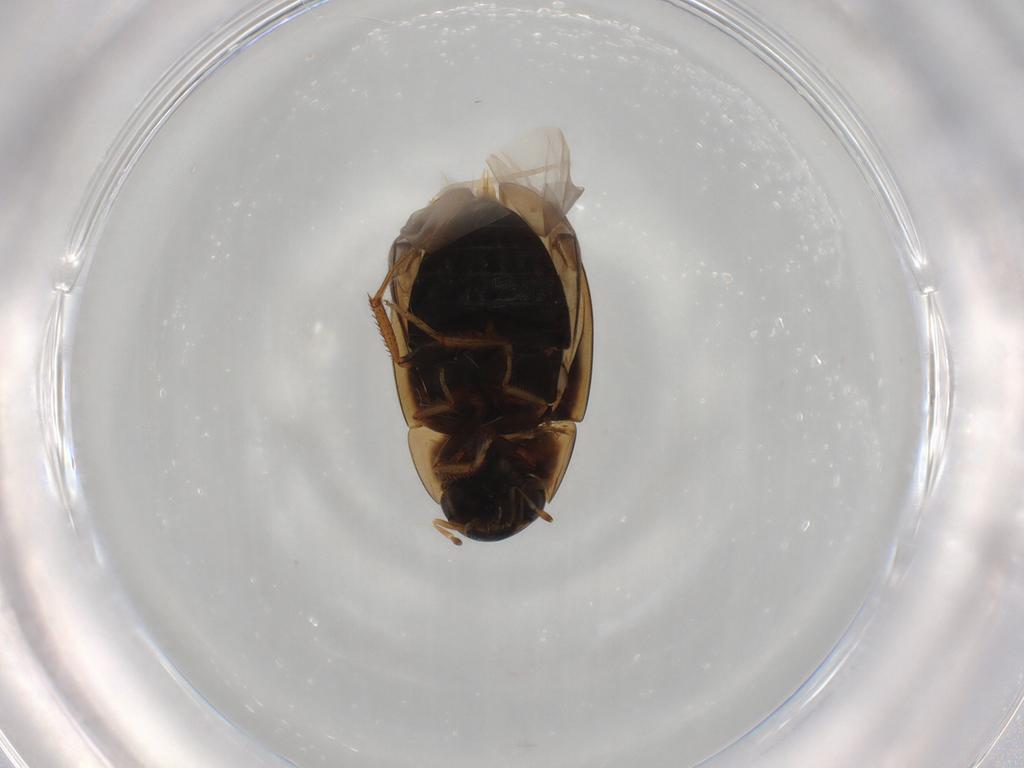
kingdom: Animalia
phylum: Arthropoda
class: Insecta
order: Coleoptera
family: Hydrophilidae
